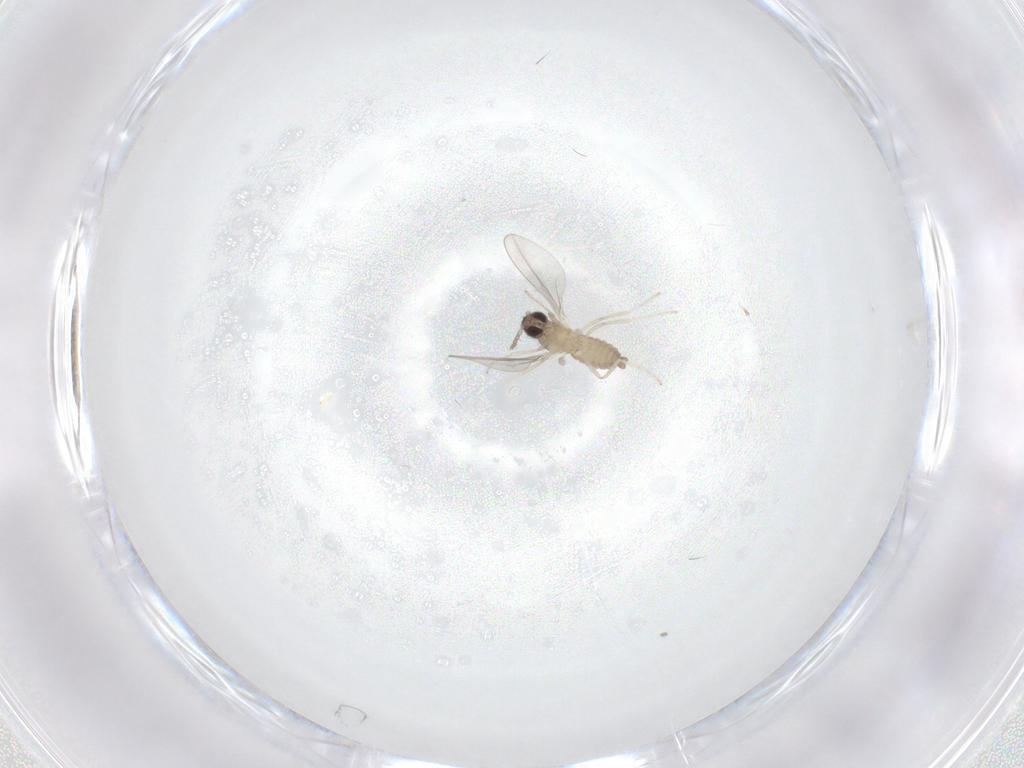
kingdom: Animalia
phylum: Arthropoda
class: Insecta
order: Diptera
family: Cecidomyiidae
